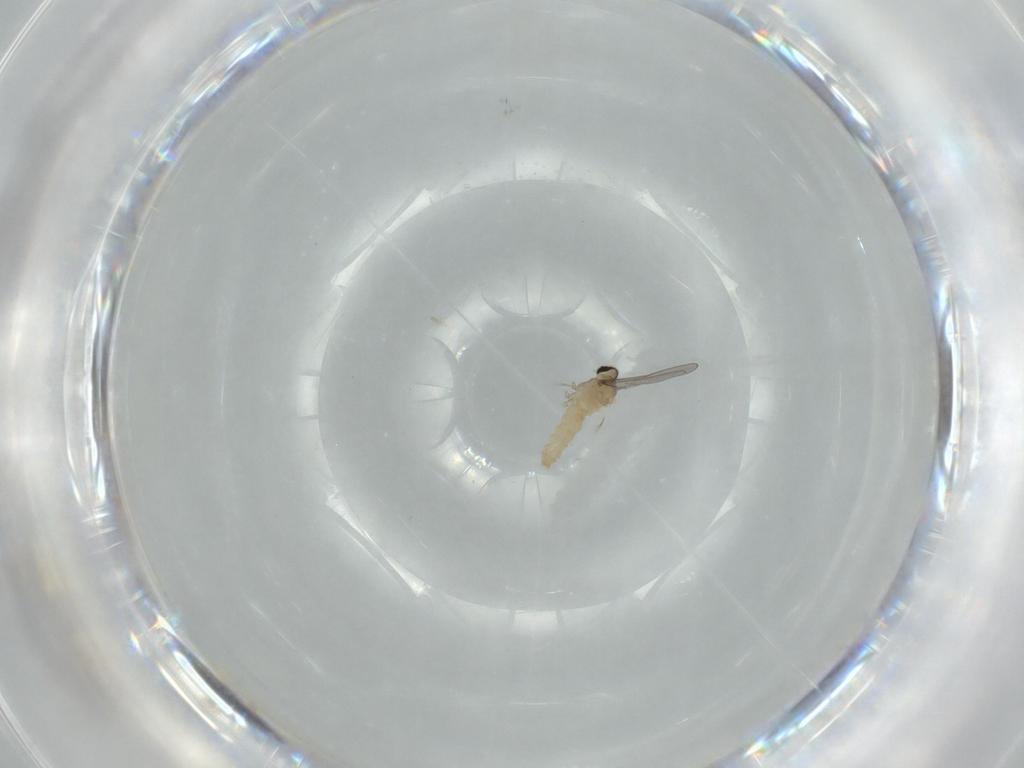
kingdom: Animalia
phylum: Arthropoda
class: Insecta
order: Diptera
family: Cecidomyiidae
